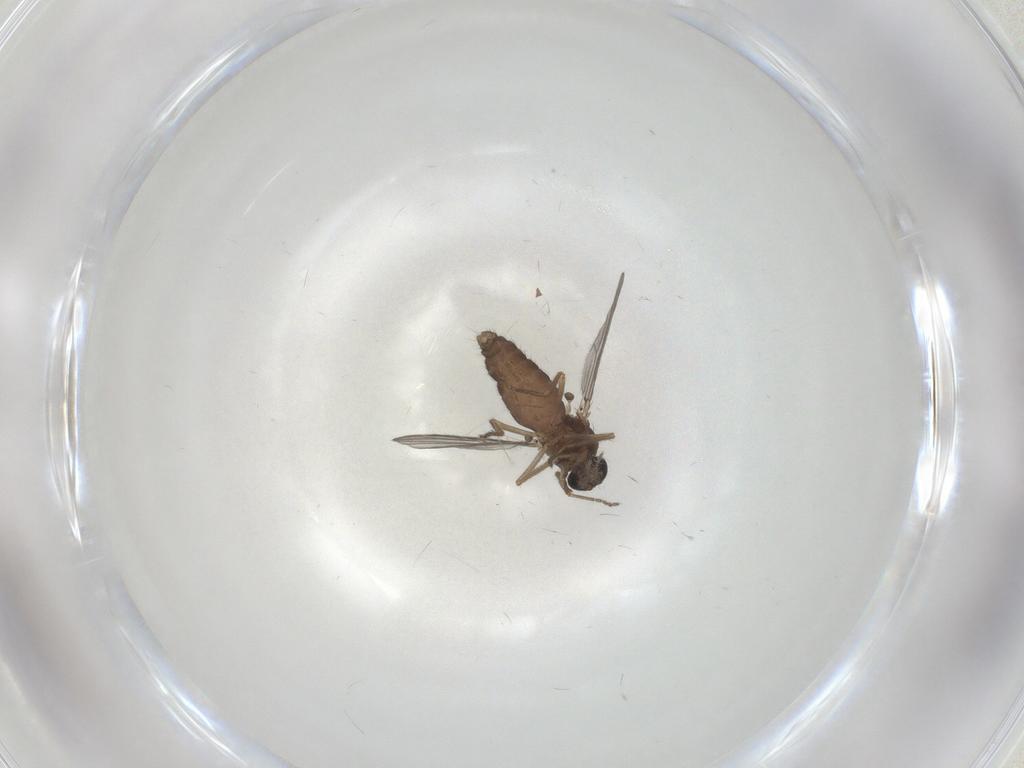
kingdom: Animalia
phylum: Arthropoda
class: Insecta
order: Diptera
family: Ceratopogonidae
